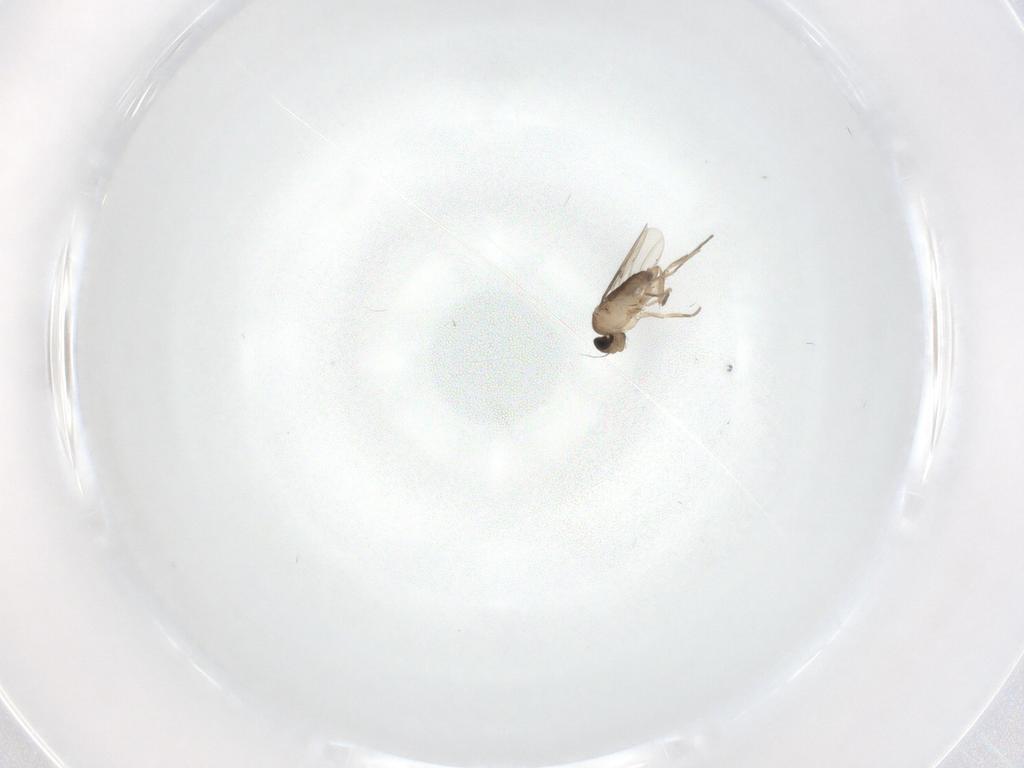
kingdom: Animalia
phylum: Arthropoda
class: Insecta
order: Diptera
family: Phoridae
